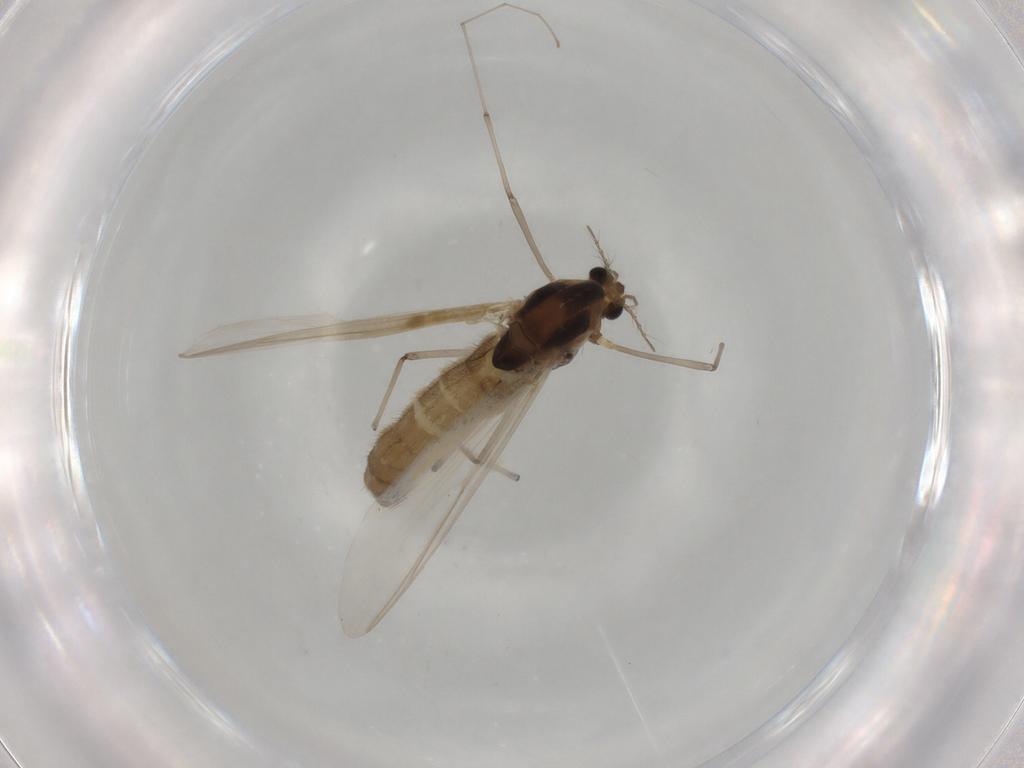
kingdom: Animalia
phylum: Arthropoda
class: Insecta
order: Diptera
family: Chironomidae
